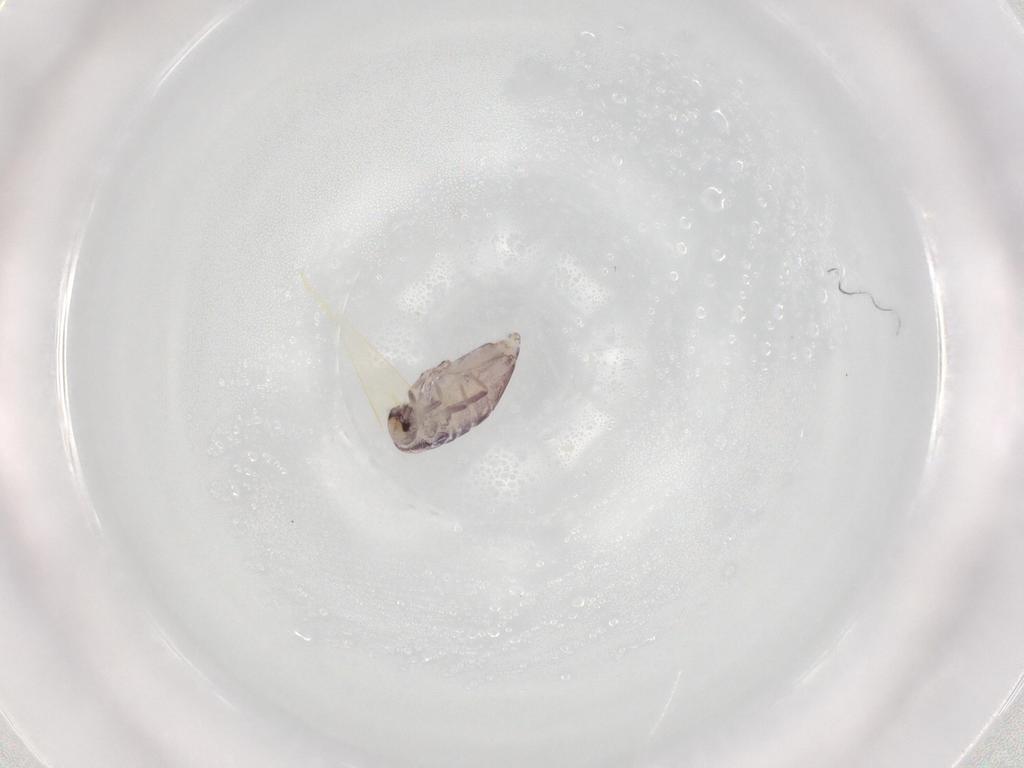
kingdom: Animalia
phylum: Arthropoda
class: Collembola
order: Poduromorpha
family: Hypogastruridae
